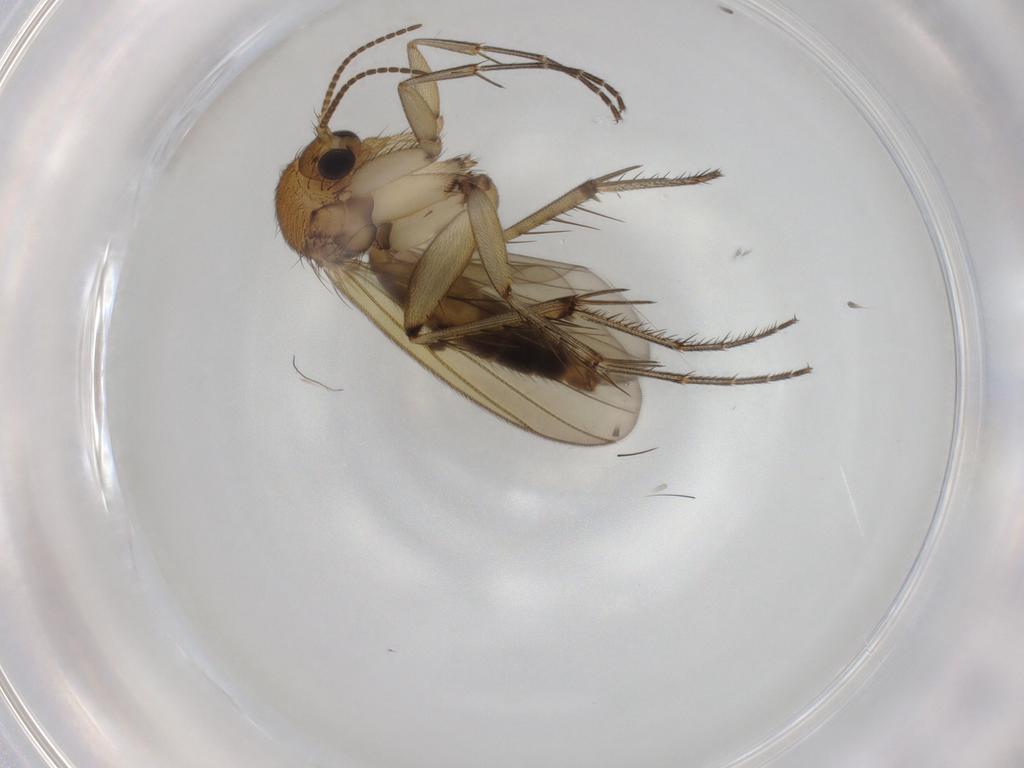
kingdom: Animalia
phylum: Arthropoda
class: Insecta
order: Diptera
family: Mycetophilidae
